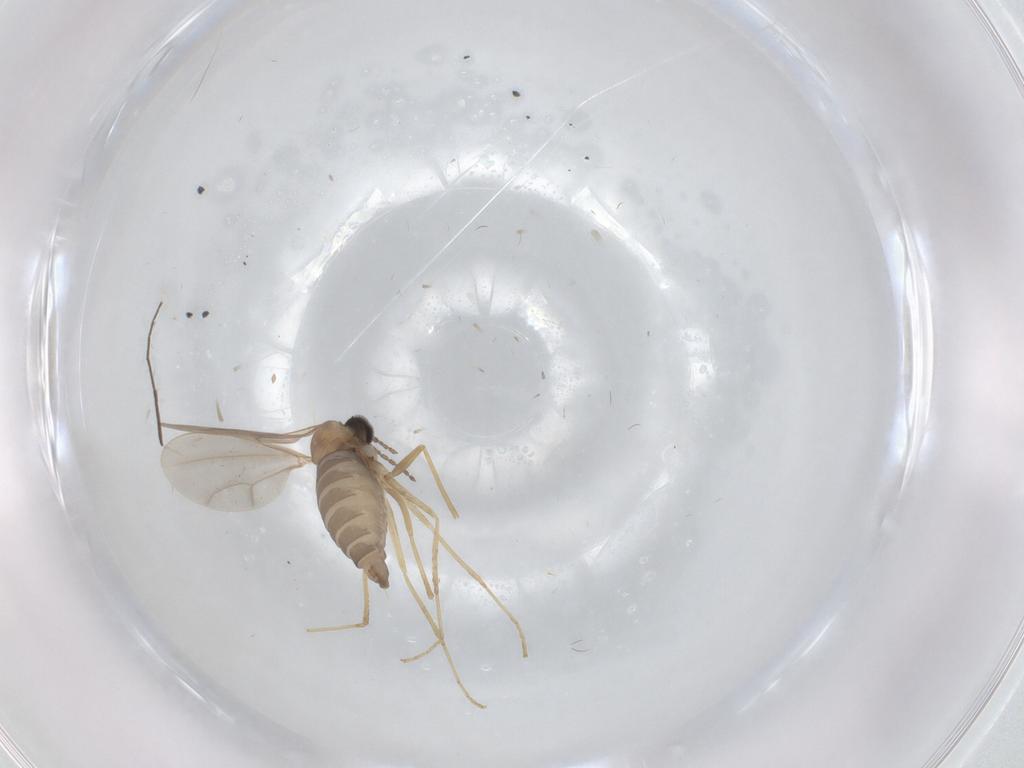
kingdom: Animalia
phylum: Arthropoda
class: Insecta
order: Diptera
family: Cecidomyiidae
